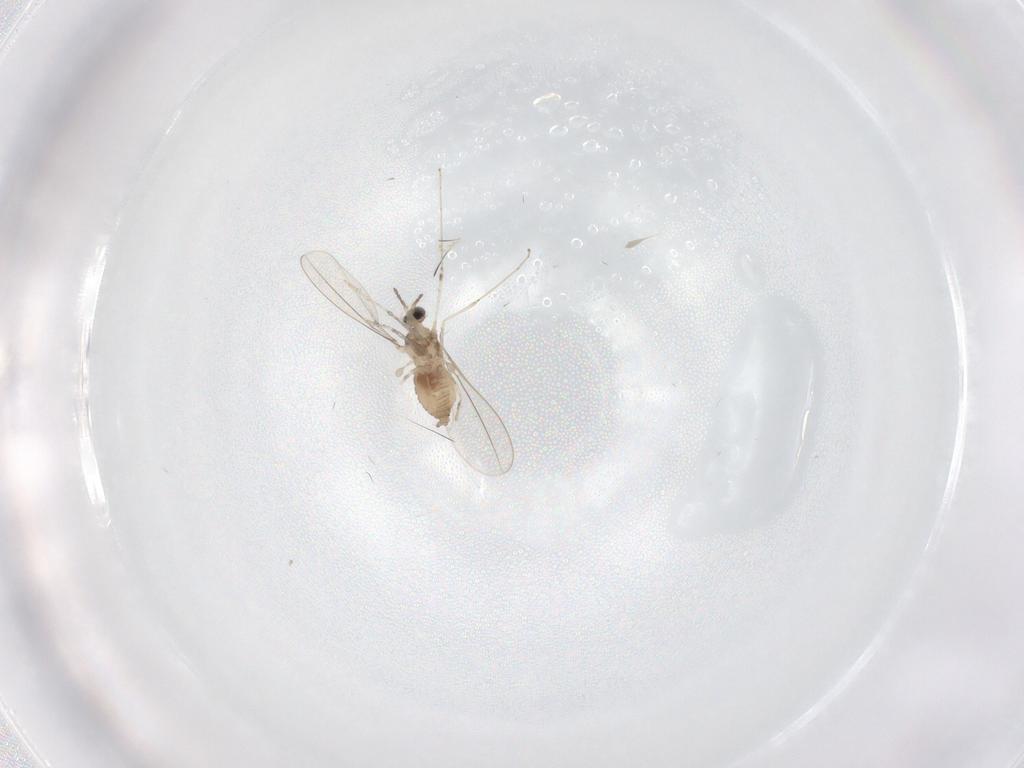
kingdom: Animalia
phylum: Arthropoda
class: Insecta
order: Diptera
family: Cecidomyiidae
